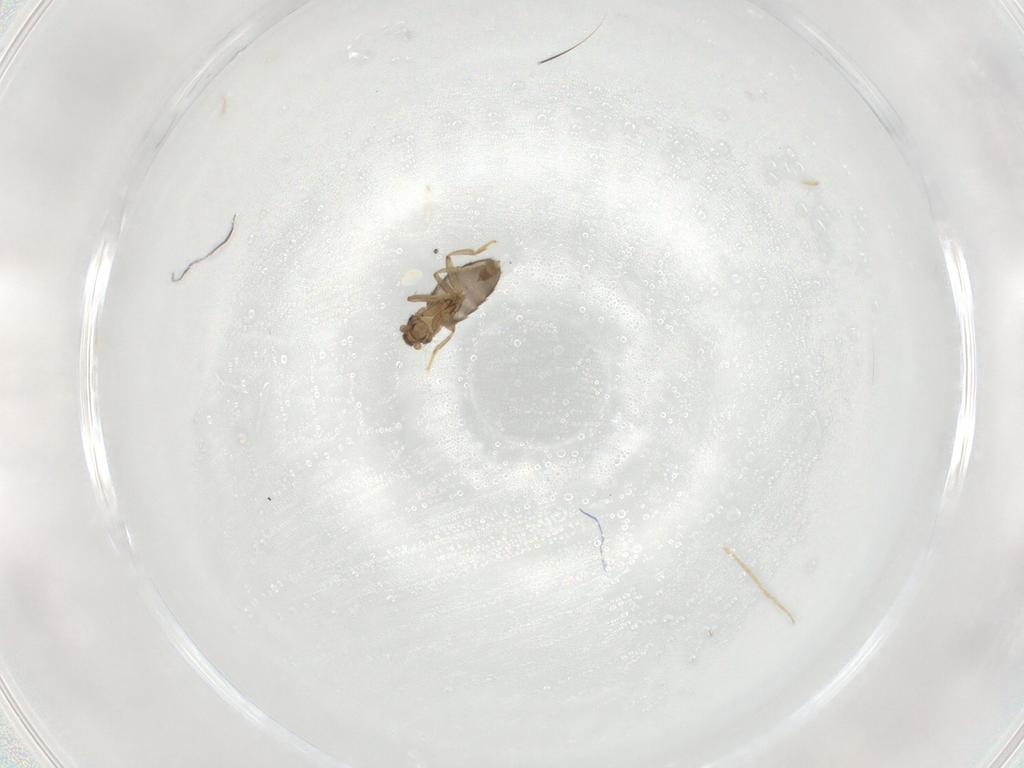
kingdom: Animalia
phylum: Arthropoda
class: Insecta
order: Diptera
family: Phoridae
